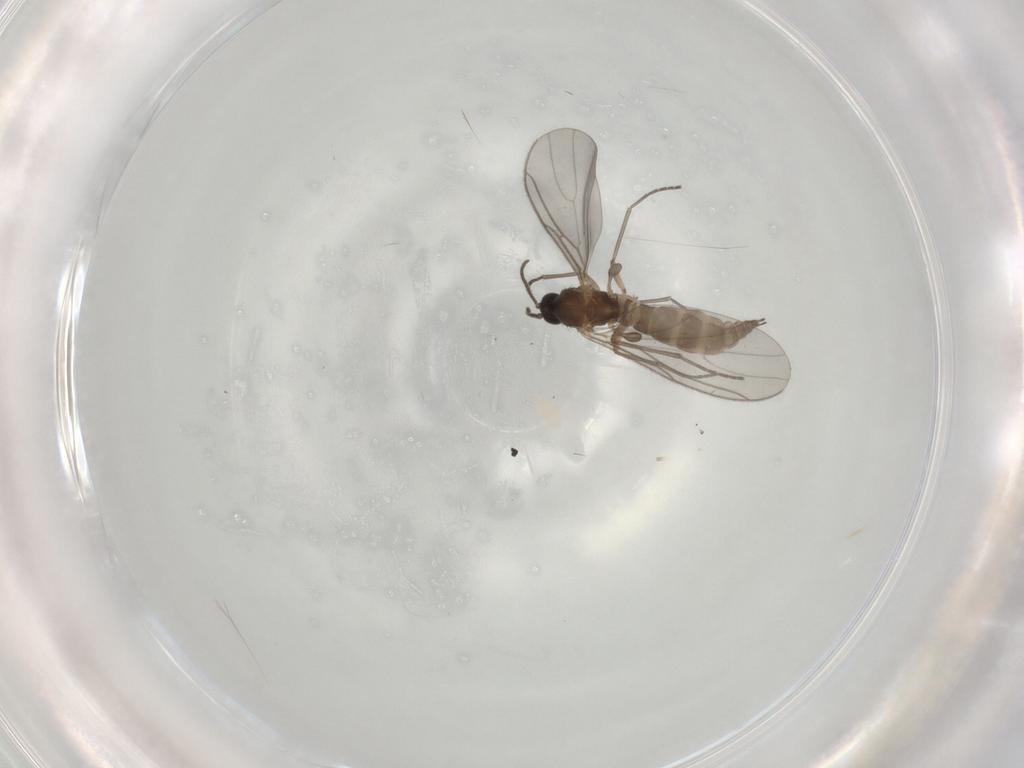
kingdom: Animalia
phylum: Arthropoda
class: Insecta
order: Diptera
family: Sciaridae
